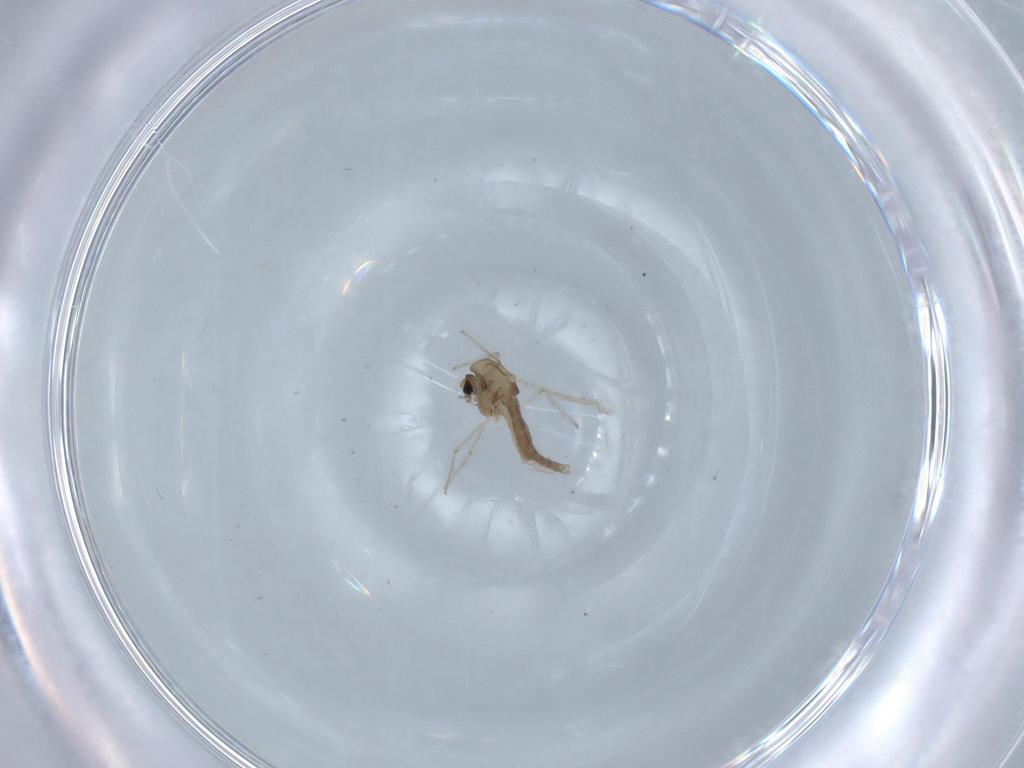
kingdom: Animalia
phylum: Arthropoda
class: Insecta
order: Diptera
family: Chironomidae
